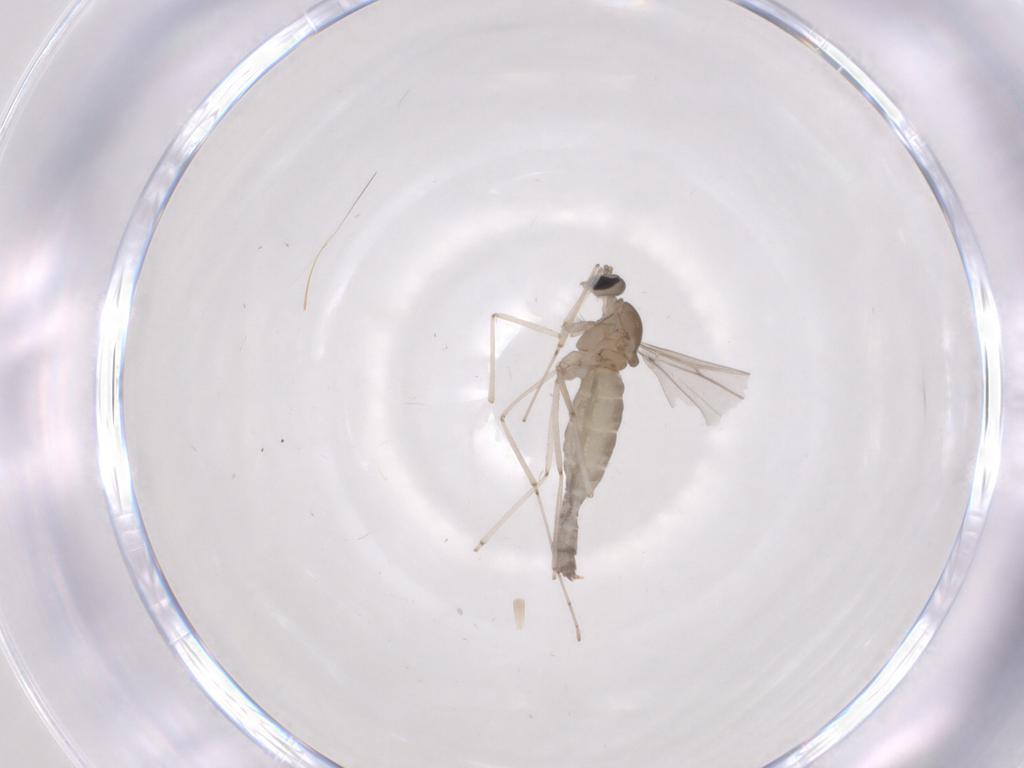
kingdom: Animalia
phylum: Arthropoda
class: Insecta
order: Diptera
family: Cecidomyiidae
